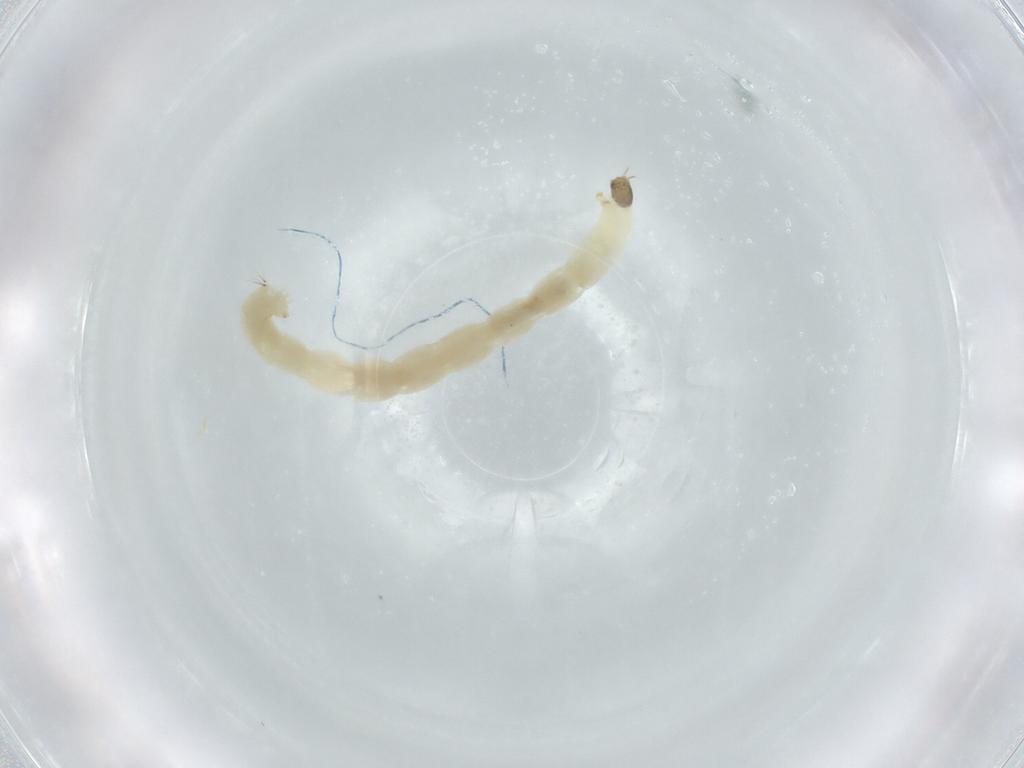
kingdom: Animalia
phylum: Arthropoda
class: Insecta
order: Diptera
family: Chironomidae
